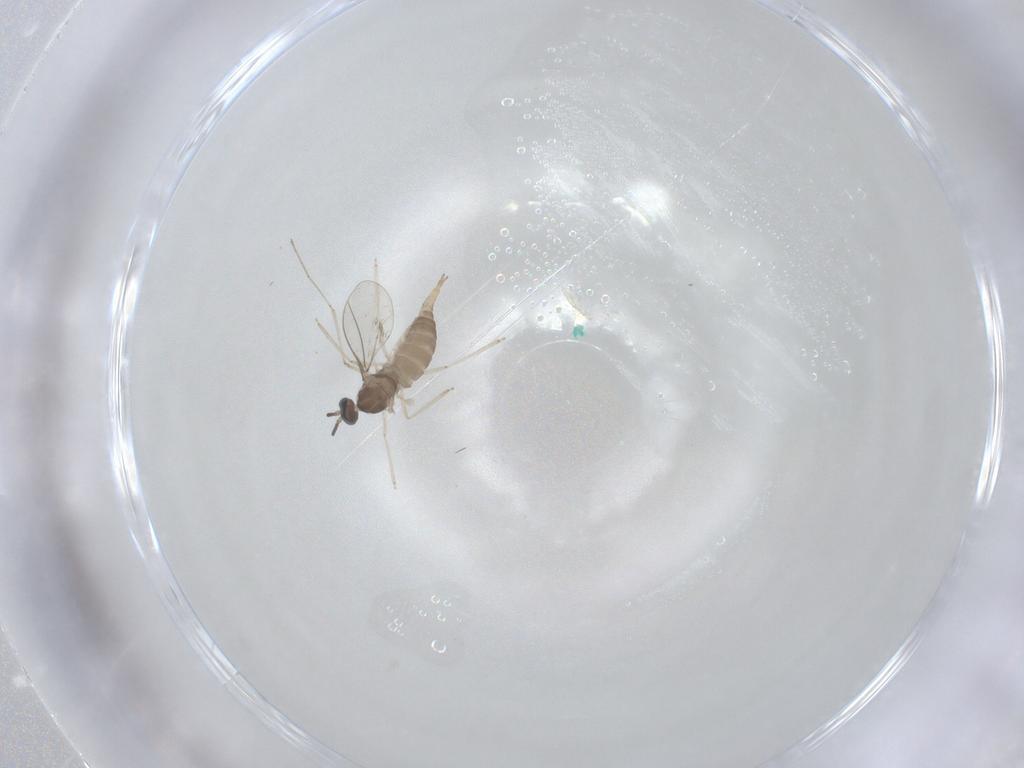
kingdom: Animalia
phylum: Arthropoda
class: Insecta
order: Diptera
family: Cecidomyiidae
